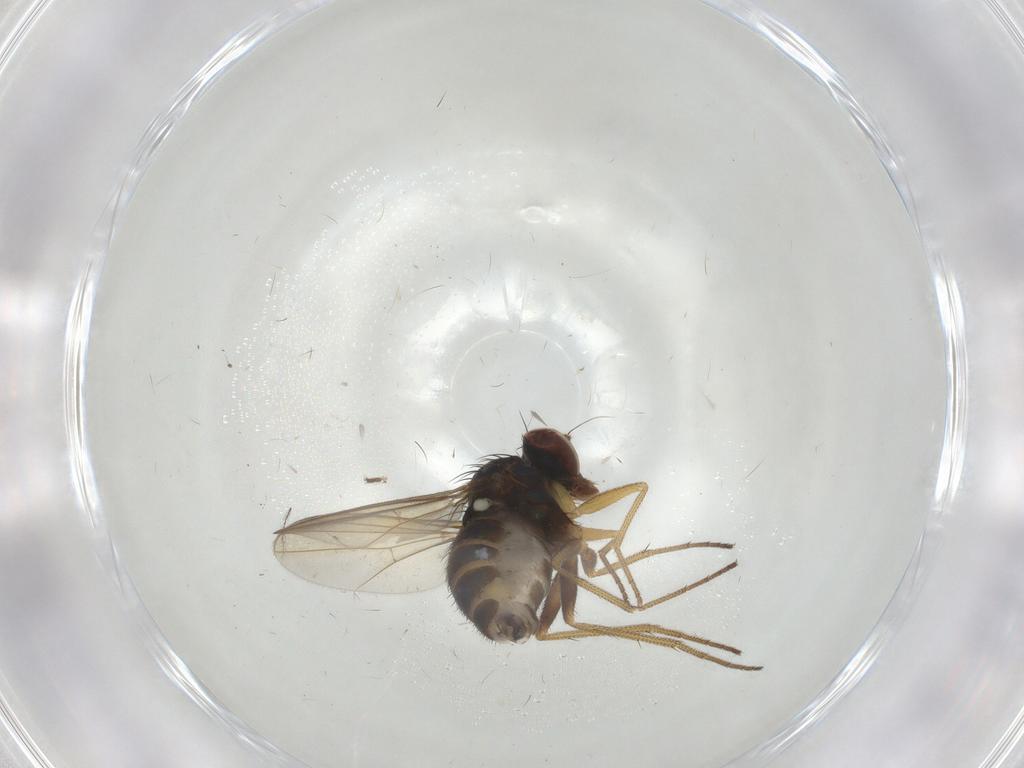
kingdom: Animalia
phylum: Arthropoda
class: Insecta
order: Diptera
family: Dolichopodidae
